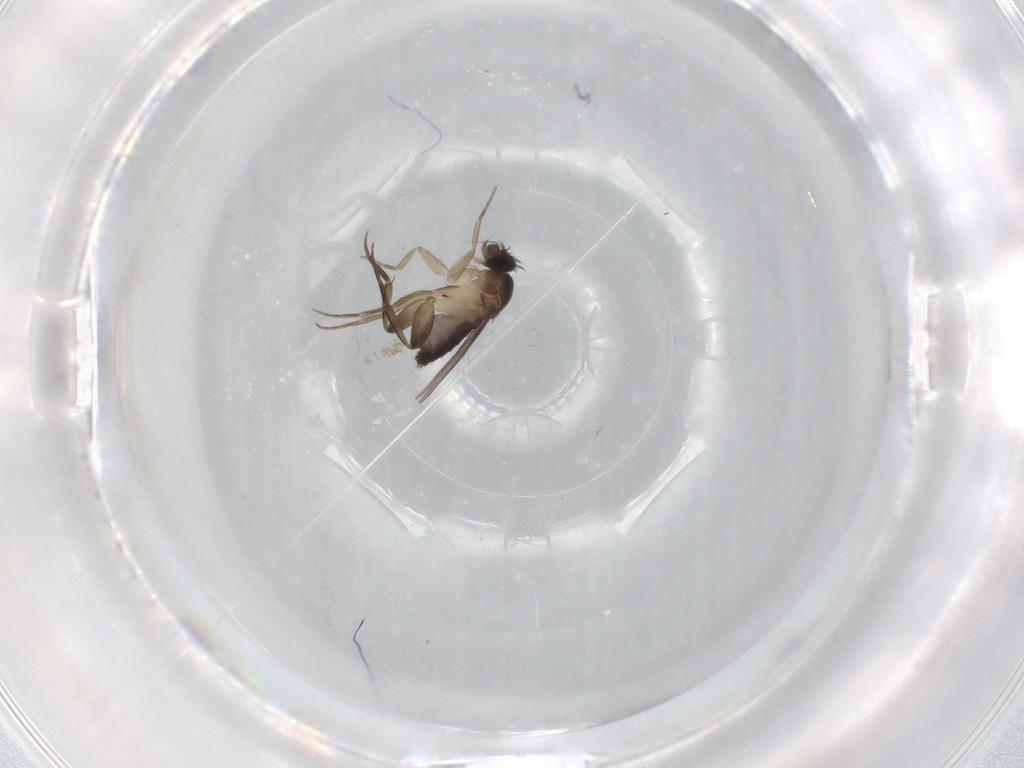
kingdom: Animalia
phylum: Arthropoda
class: Insecta
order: Diptera
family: Phoridae
